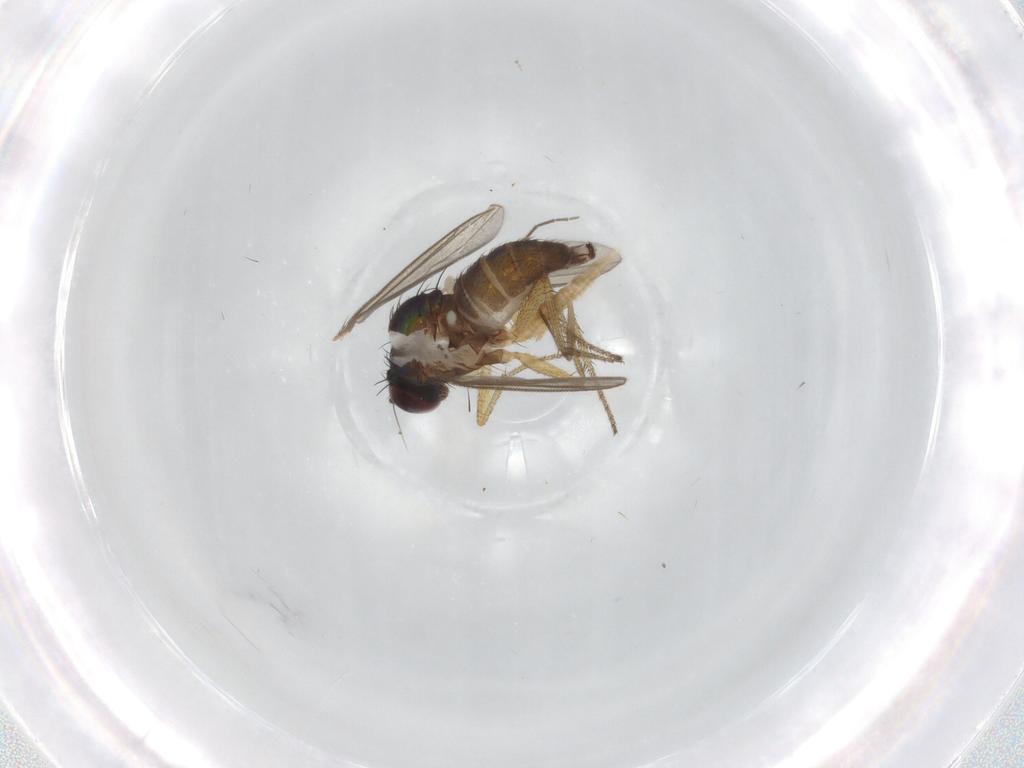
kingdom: Animalia
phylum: Arthropoda
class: Insecta
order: Diptera
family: Dolichopodidae
